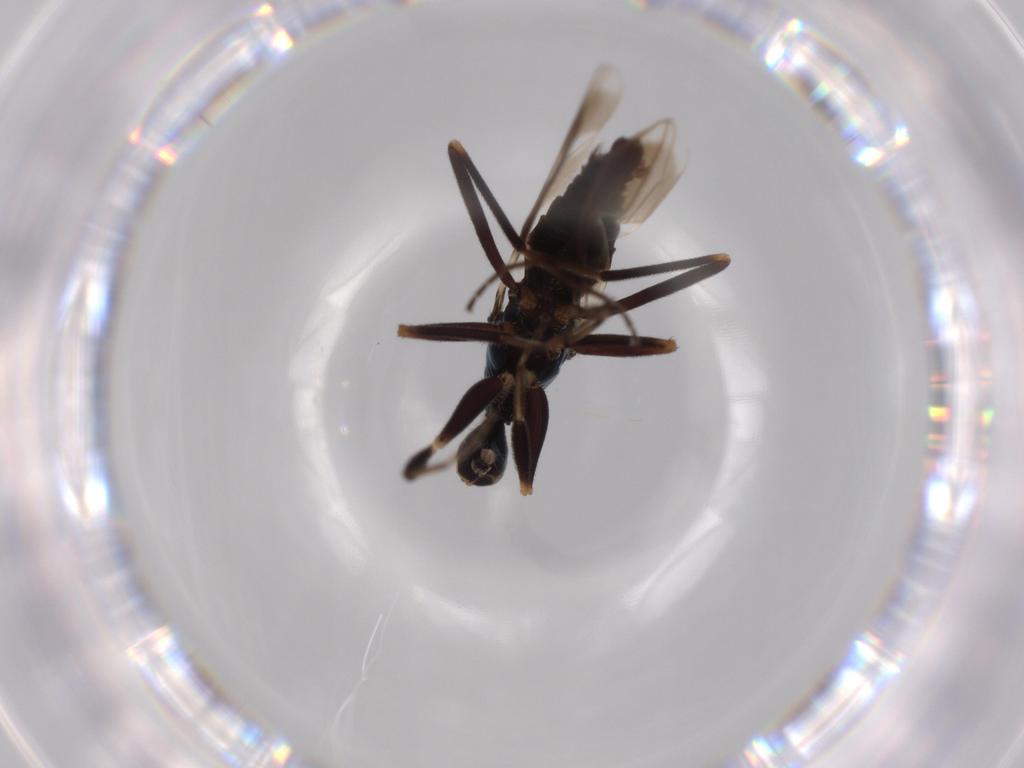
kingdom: Animalia
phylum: Arthropoda
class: Insecta
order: Diptera
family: Hybotidae
